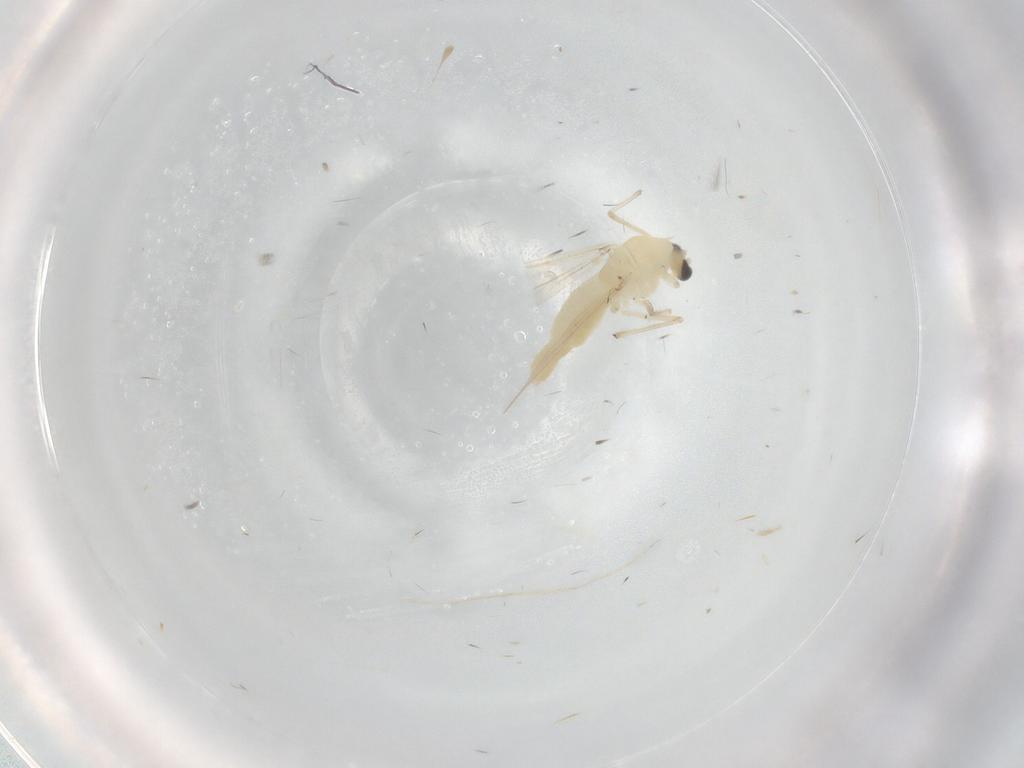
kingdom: Animalia
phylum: Arthropoda
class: Insecta
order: Diptera
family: Chironomidae
